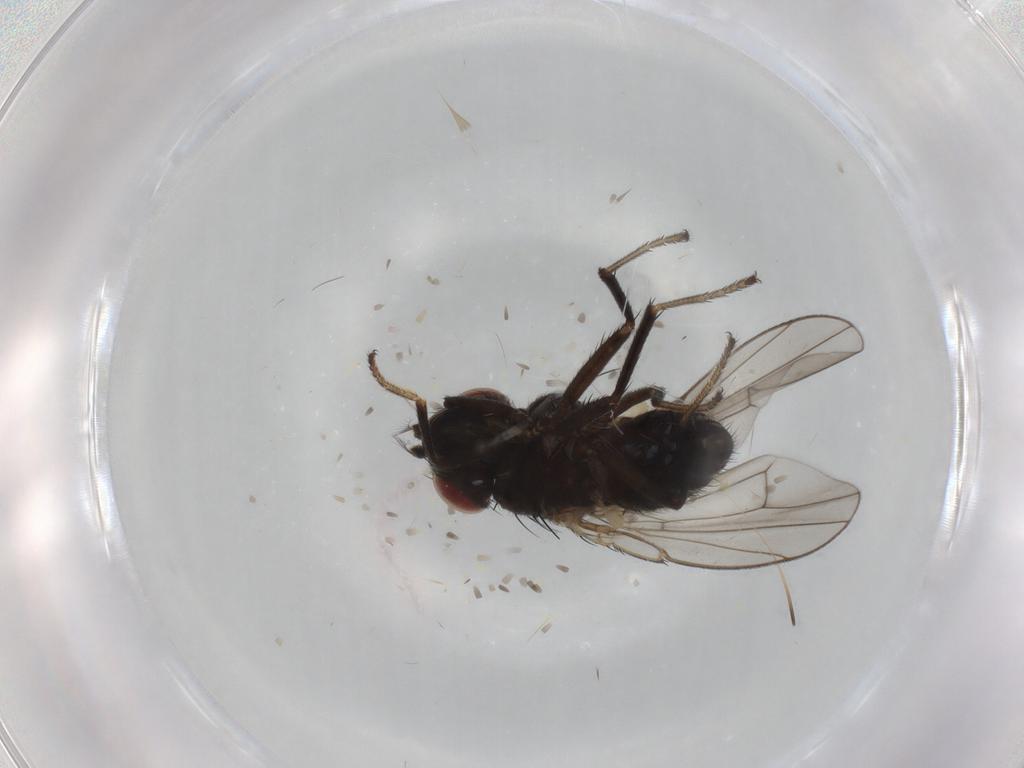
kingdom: Animalia
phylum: Arthropoda
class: Insecta
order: Diptera
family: Ephydridae
